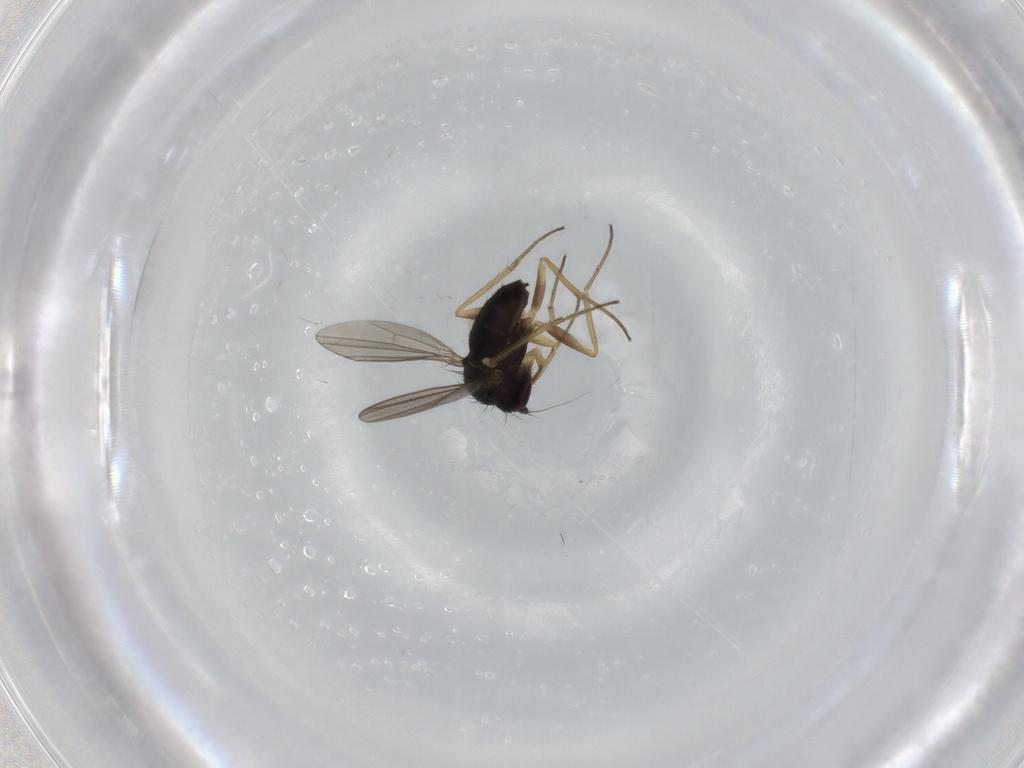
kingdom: Animalia
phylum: Arthropoda
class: Insecta
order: Diptera
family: Dolichopodidae
